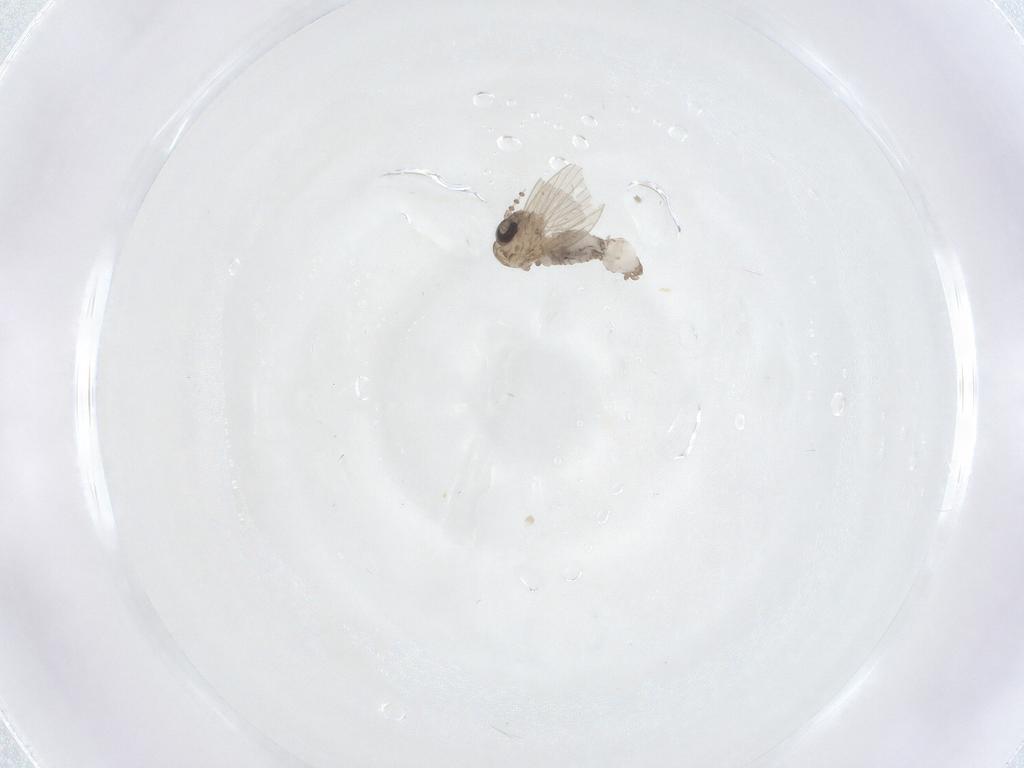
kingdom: Animalia
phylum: Arthropoda
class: Insecta
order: Diptera
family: Psychodidae
